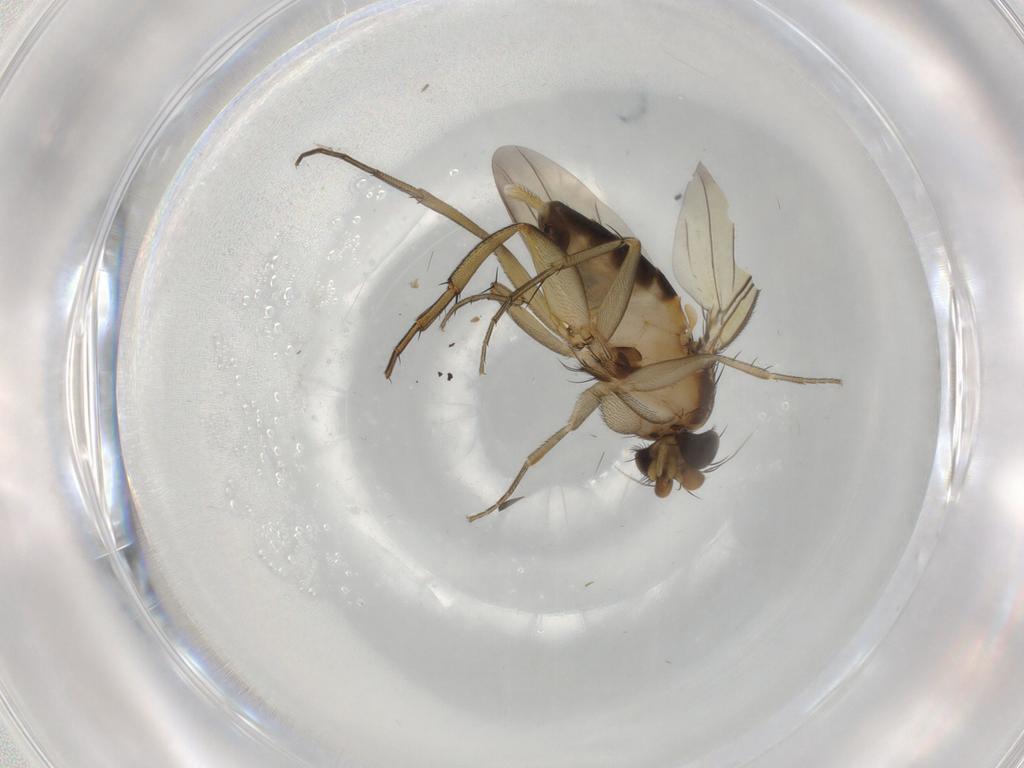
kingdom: Animalia
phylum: Arthropoda
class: Insecta
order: Diptera
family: Phoridae
